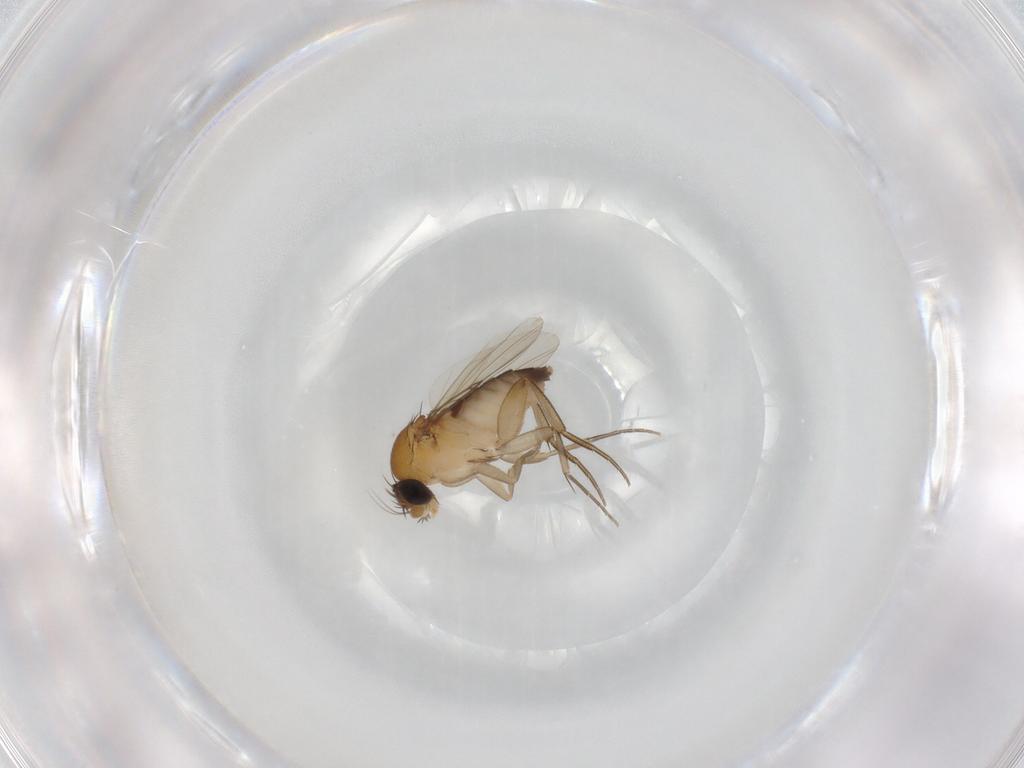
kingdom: Animalia
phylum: Arthropoda
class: Insecta
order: Diptera
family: Phoridae
